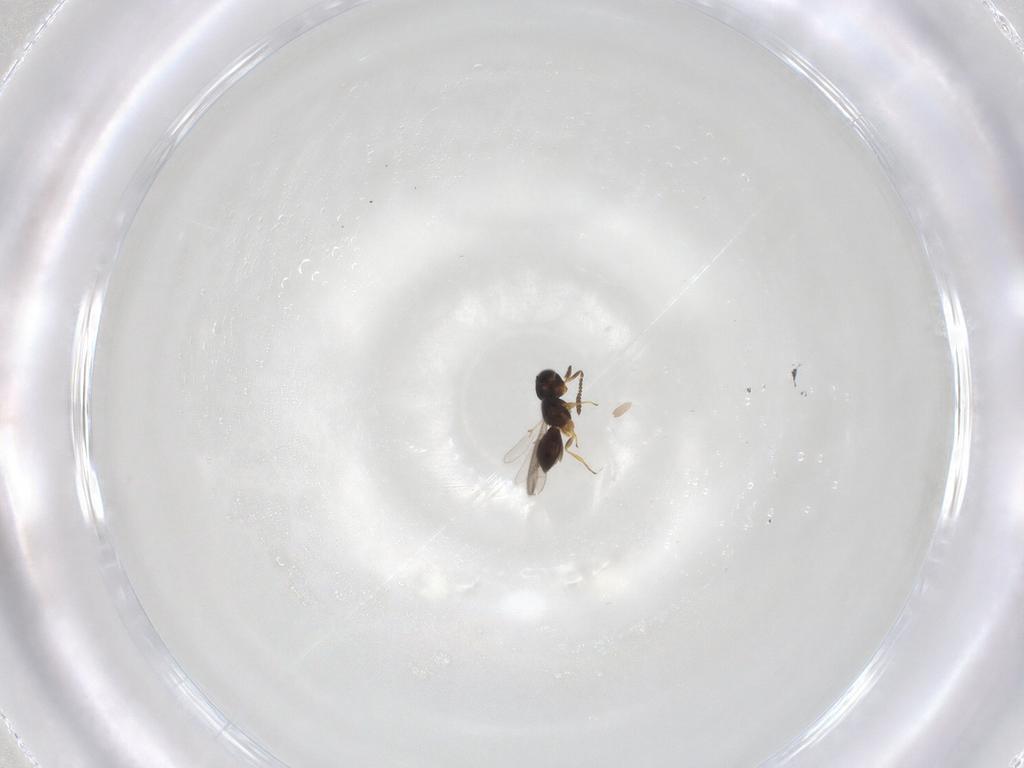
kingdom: Animalia
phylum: Arthropoda
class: Insecta
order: Hymenoptera
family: Scelionidae
